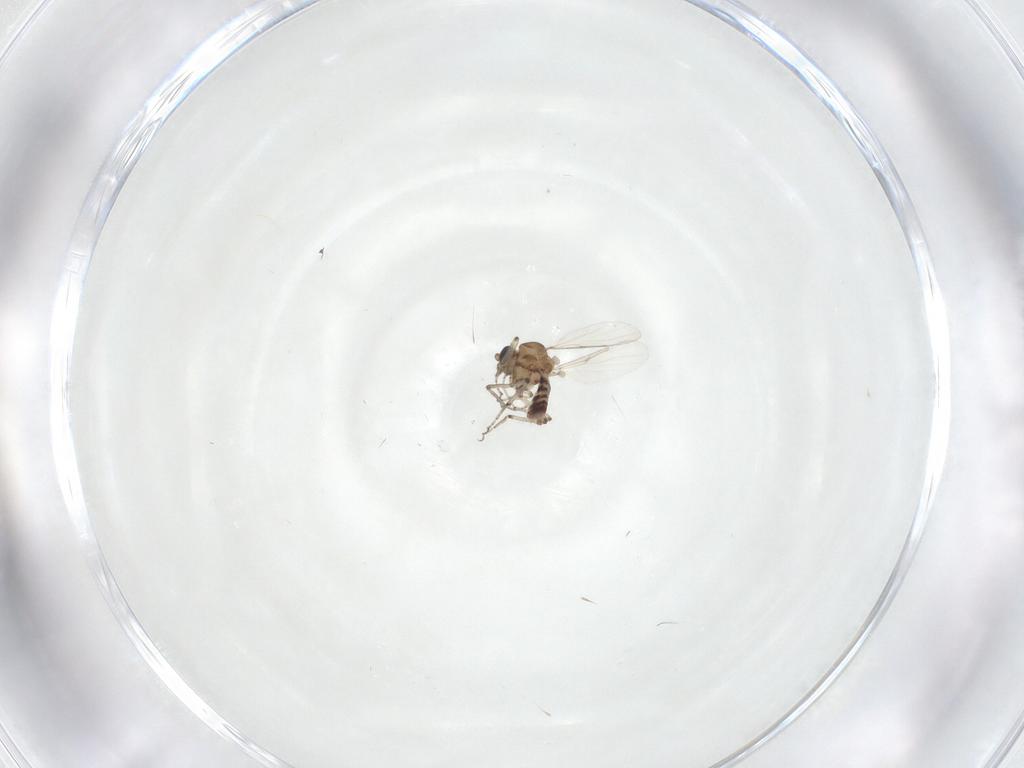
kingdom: Animalia
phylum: Arthropoda
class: Insecta
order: Diptera
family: Ceratopogonidae
